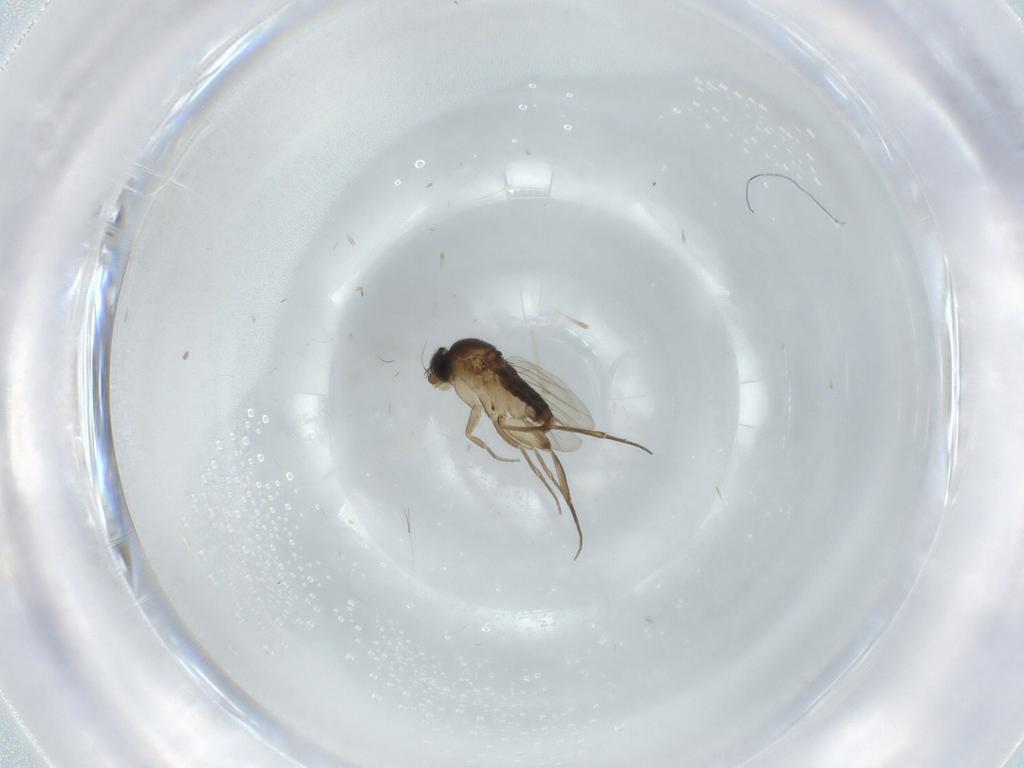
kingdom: Animalia
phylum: Arthropoda
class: Insecta
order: Diptera
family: Phoridae
